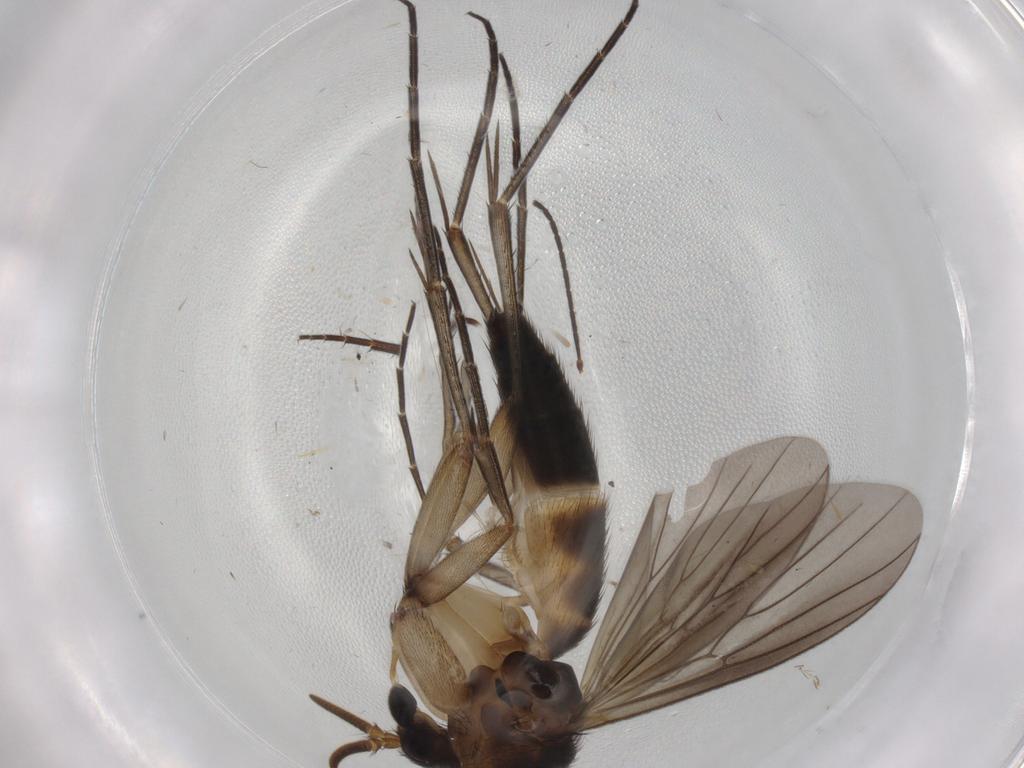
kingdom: Animalia
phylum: Arthropoda
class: Insecta
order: Diptera
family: Mycetophilidae
